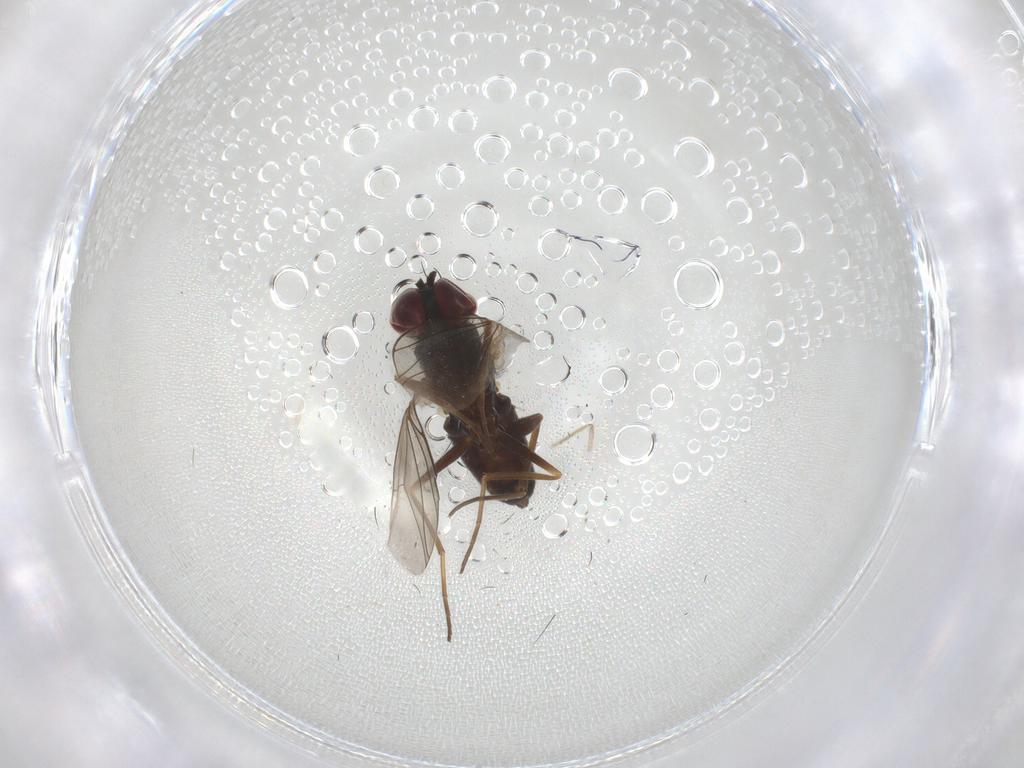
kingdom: Animalia
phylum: Arthropoda
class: Insecta
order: Diptera
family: Dolichopodidae
